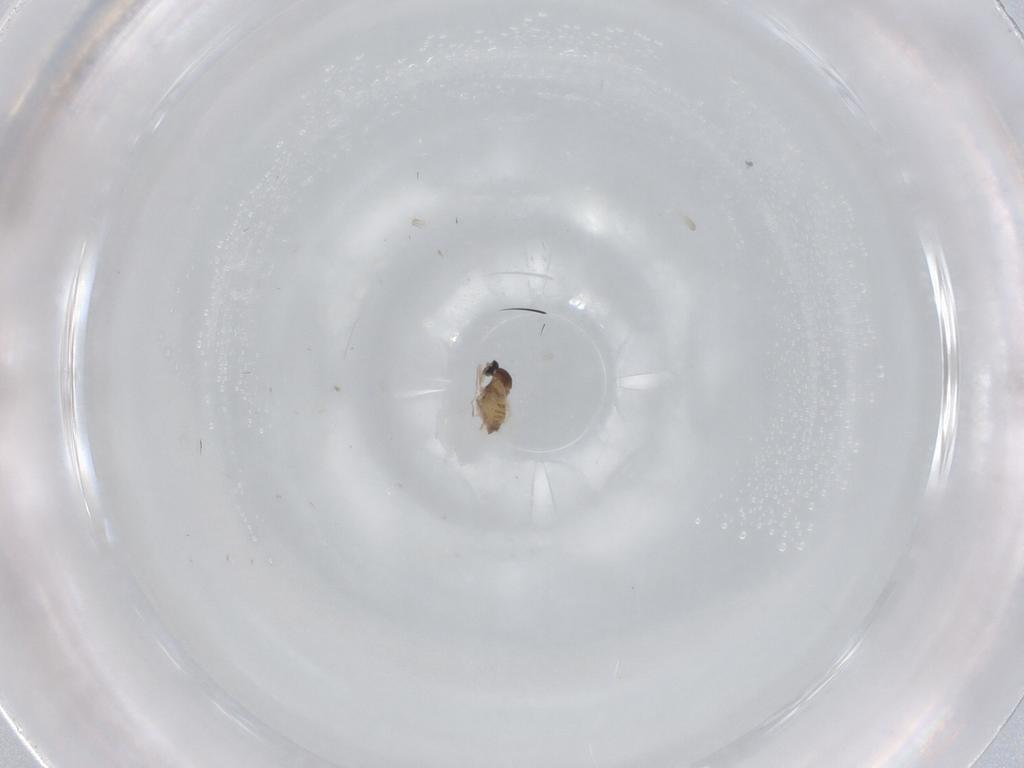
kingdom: Animalia
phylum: Arthropoda
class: Insecta
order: Diptera
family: Cecidomyiidae
